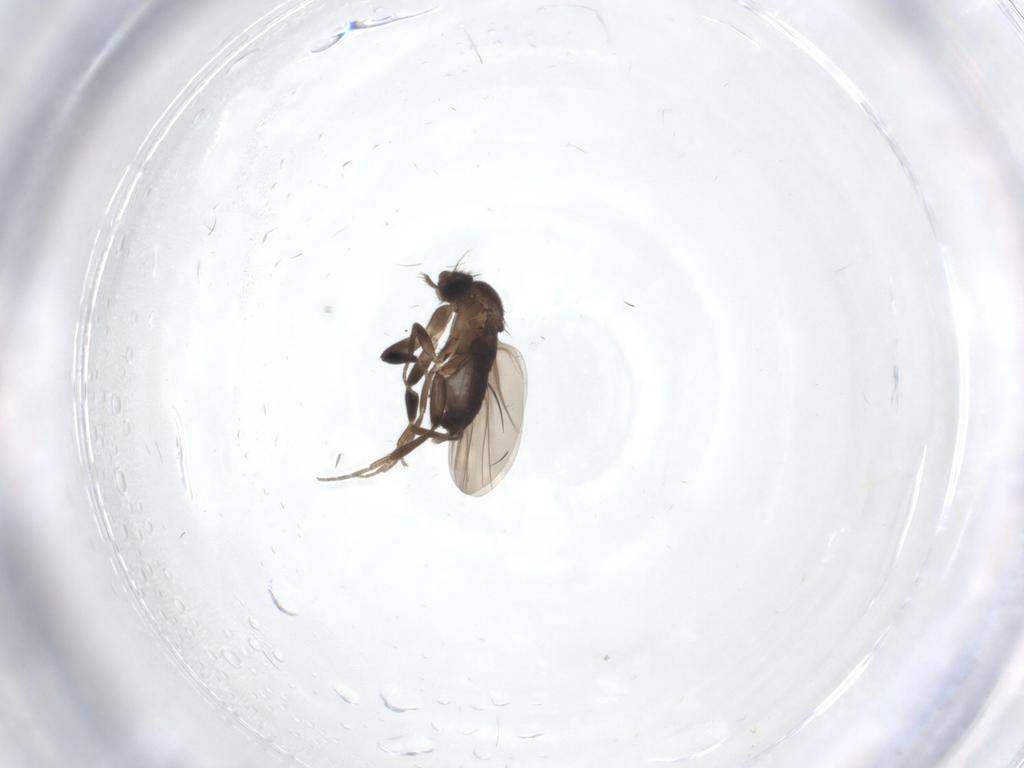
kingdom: Animalia
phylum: Arthropoda
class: Insecta
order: Diptera
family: Phoridae
